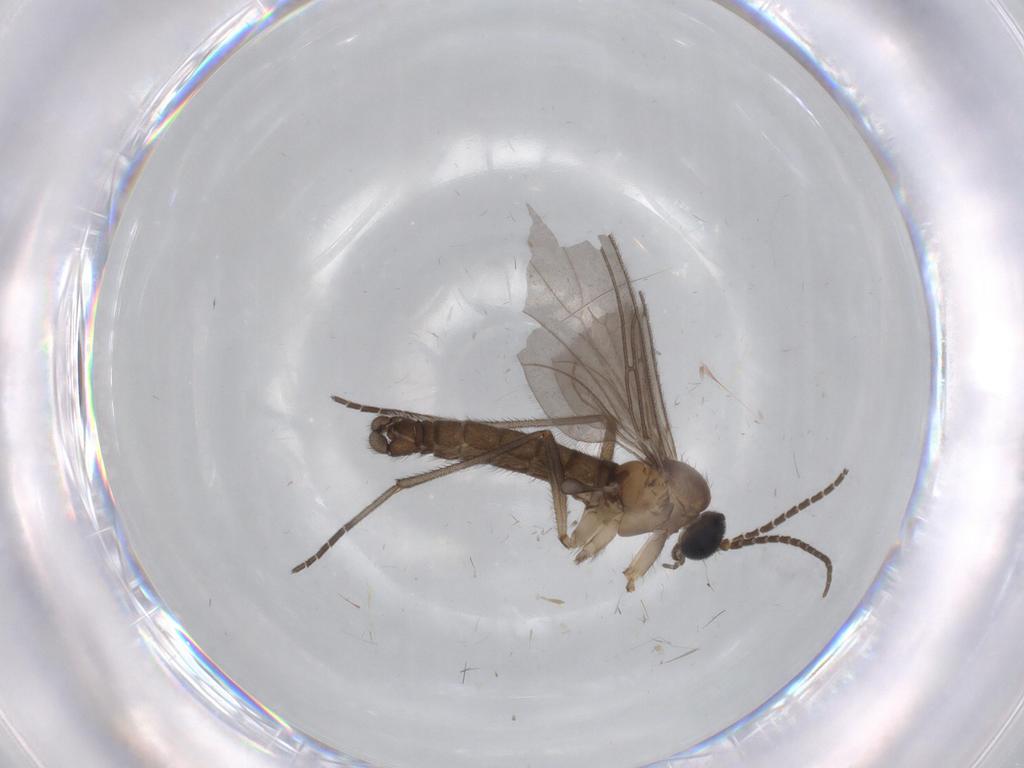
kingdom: Animalia
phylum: Arthropoda
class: Insecta
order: Diptera
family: Sciaridae
